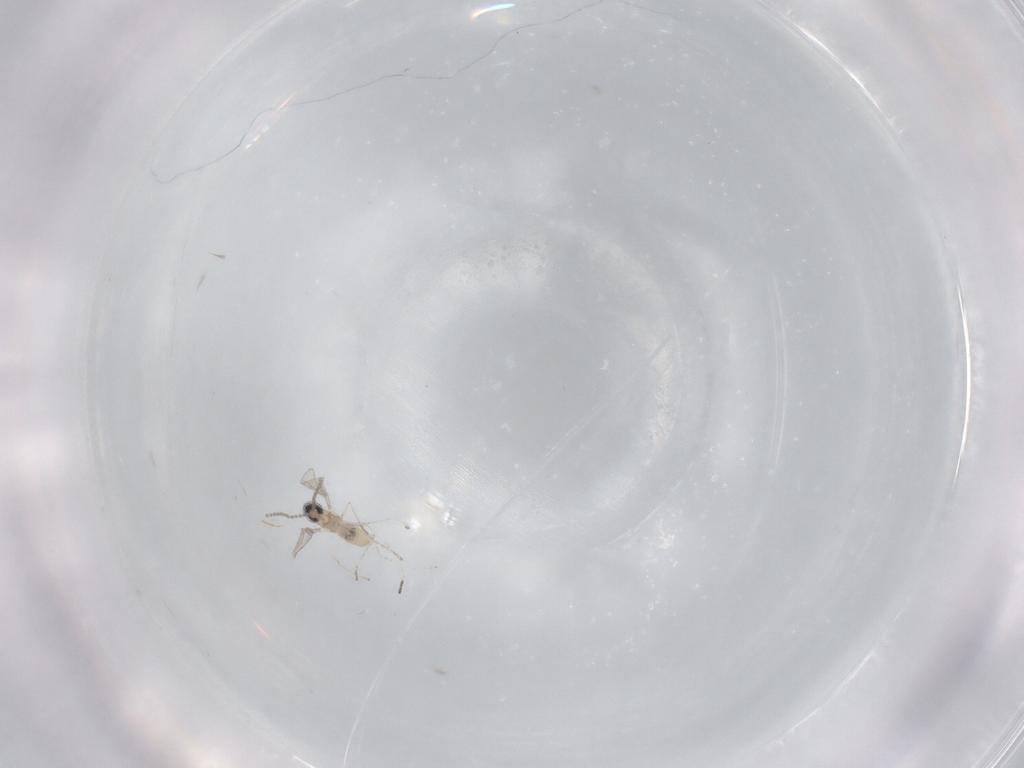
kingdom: Animalia
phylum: Arthropoda
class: Insecta
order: Diptera
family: Cecidomyiidae
